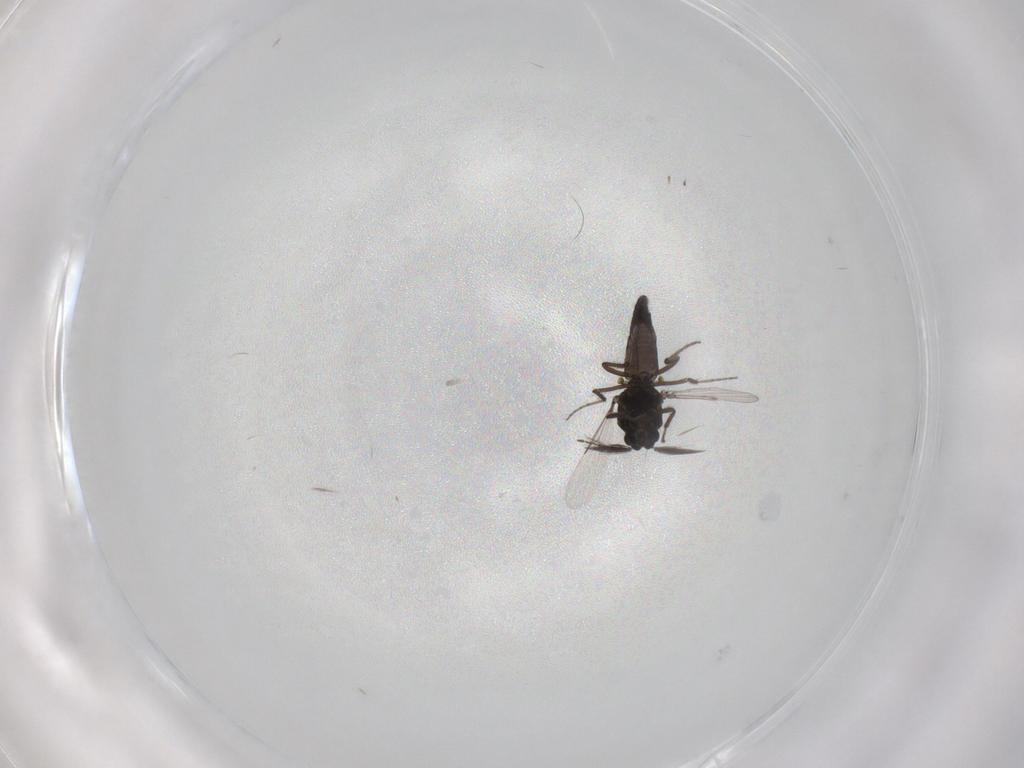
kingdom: Animalia
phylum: Arthropoda
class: Insecta
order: Diptera
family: Ceratopogonidae
